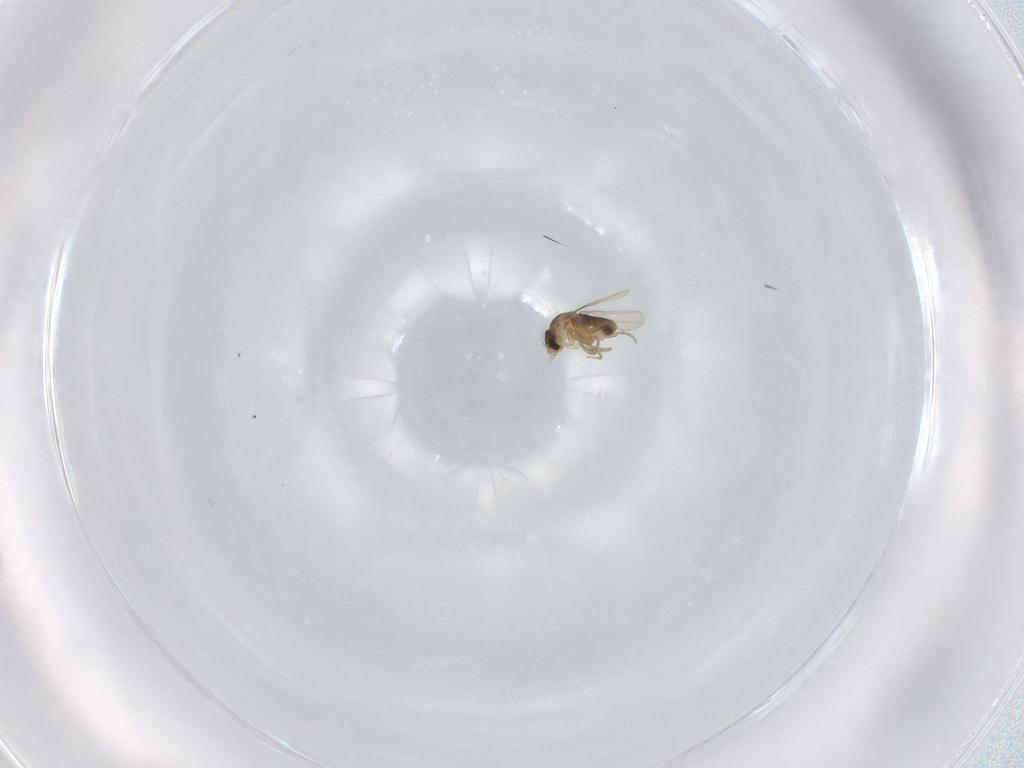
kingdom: Animalia
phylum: Arthropoda
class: Insecta
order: Diptera
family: Phoridae
